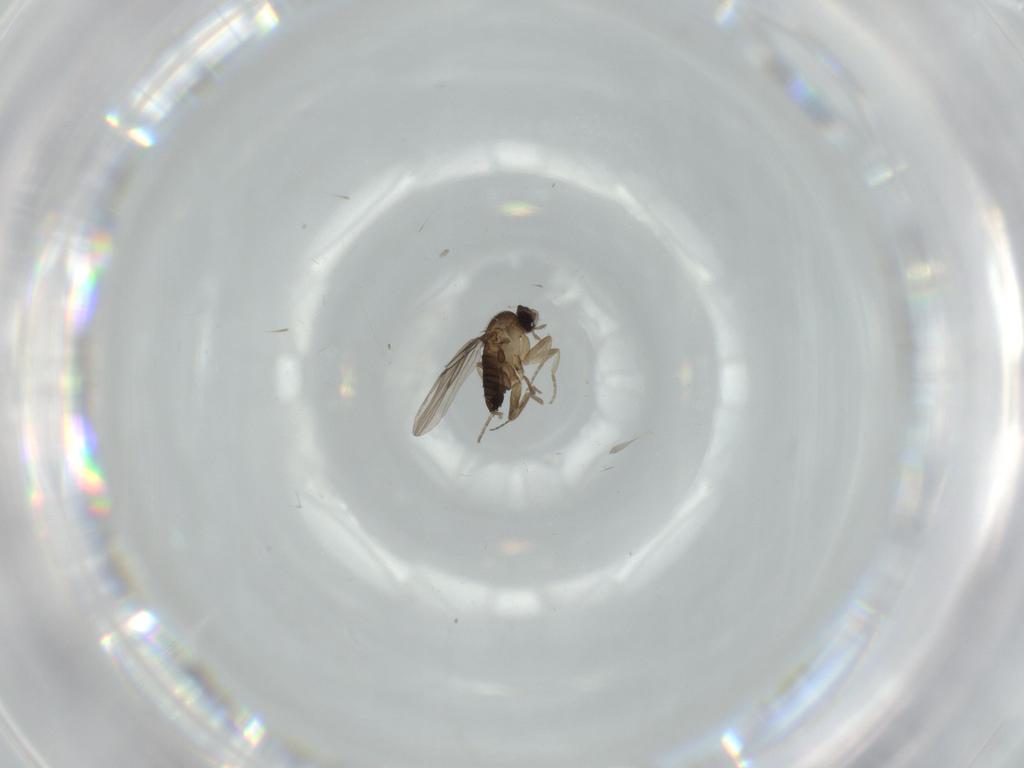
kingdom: Animalia
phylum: Arthropoda
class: Insecta
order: Diptera
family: Phoridae
